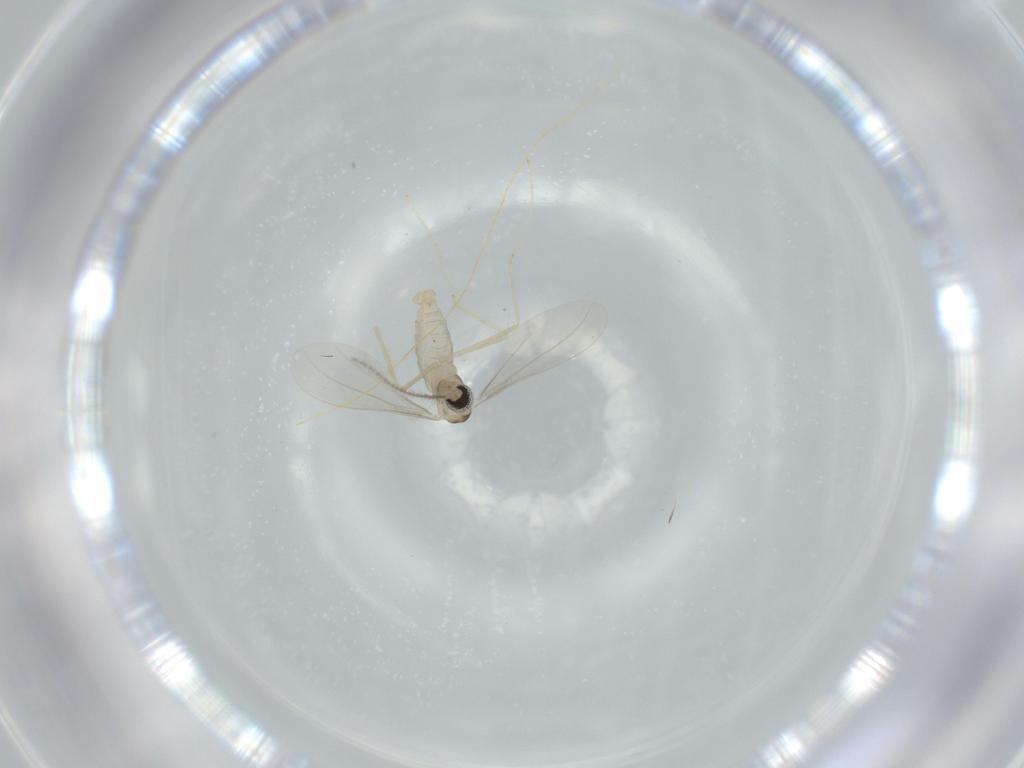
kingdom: Animalia
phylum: Arthropoda
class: Insecta
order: Diptera
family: Cecidomyiidae
